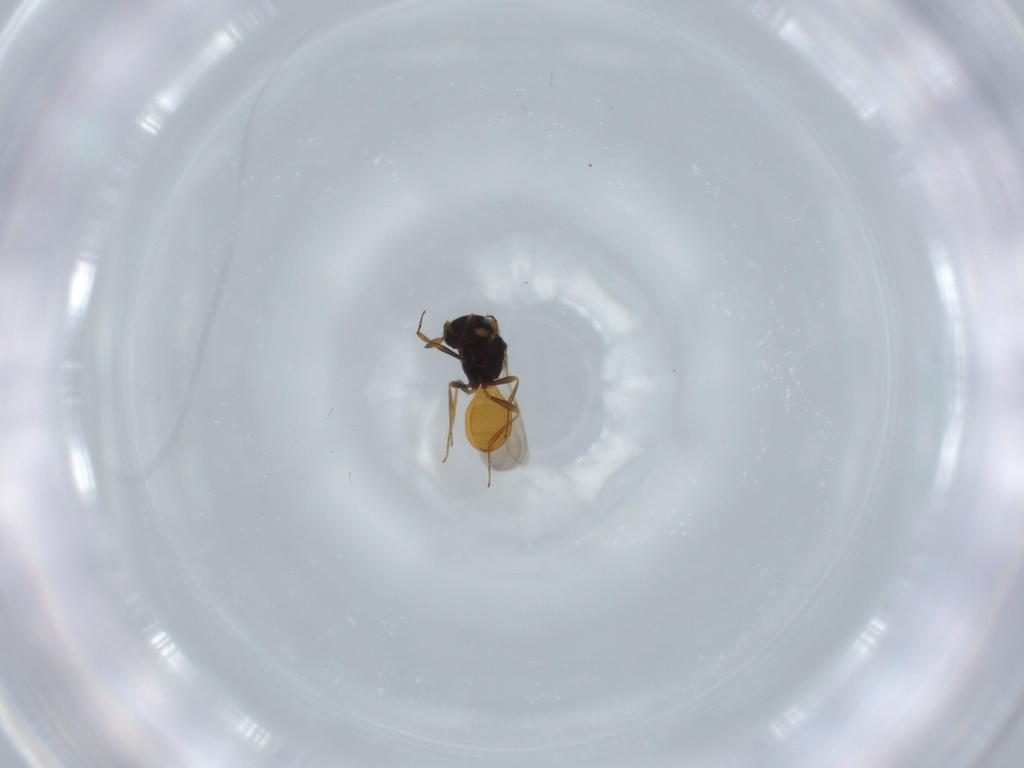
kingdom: Animalia
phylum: Arthropoda
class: Insecta
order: Hymenoptera
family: Scelionidae
